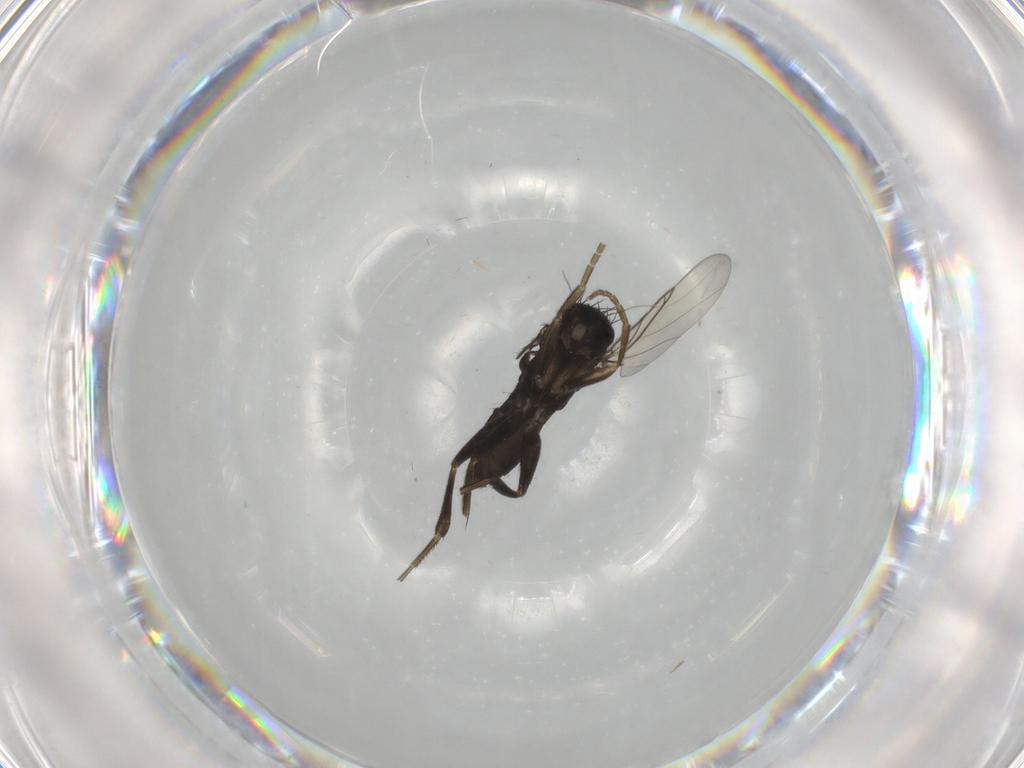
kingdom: Animalia
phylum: Arthropoda
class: Insecta
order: Diptera
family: Phoridae
